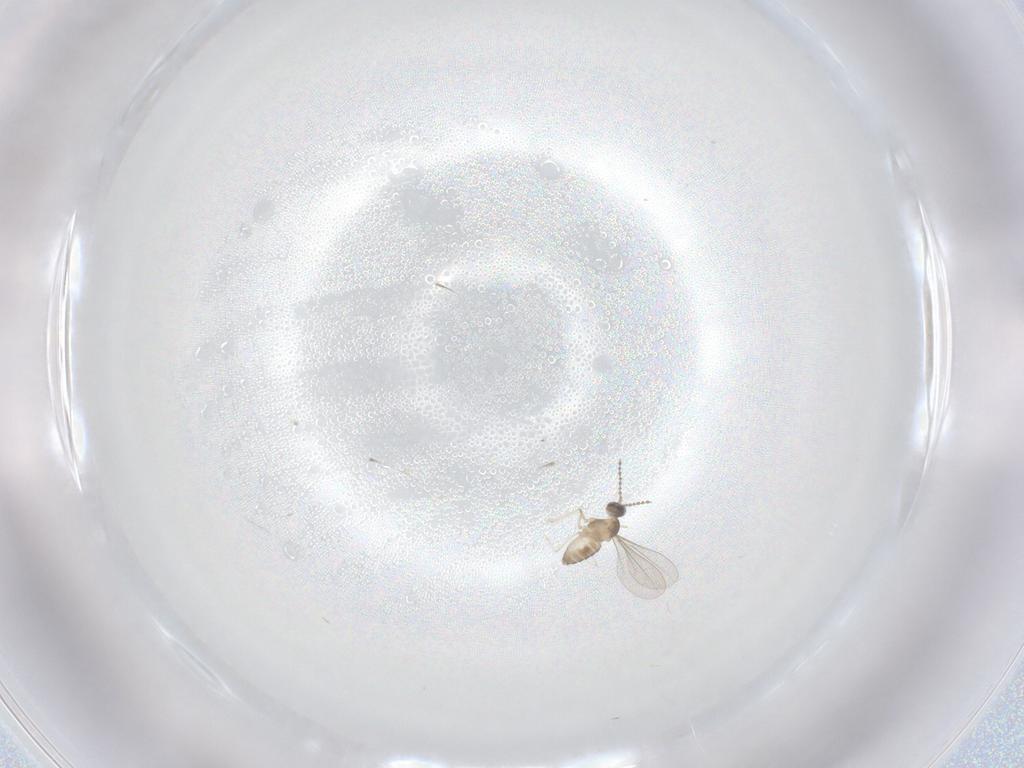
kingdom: Animalia
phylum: Arthropoda
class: Insecta
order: Diptera
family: Cecidomyiidae
